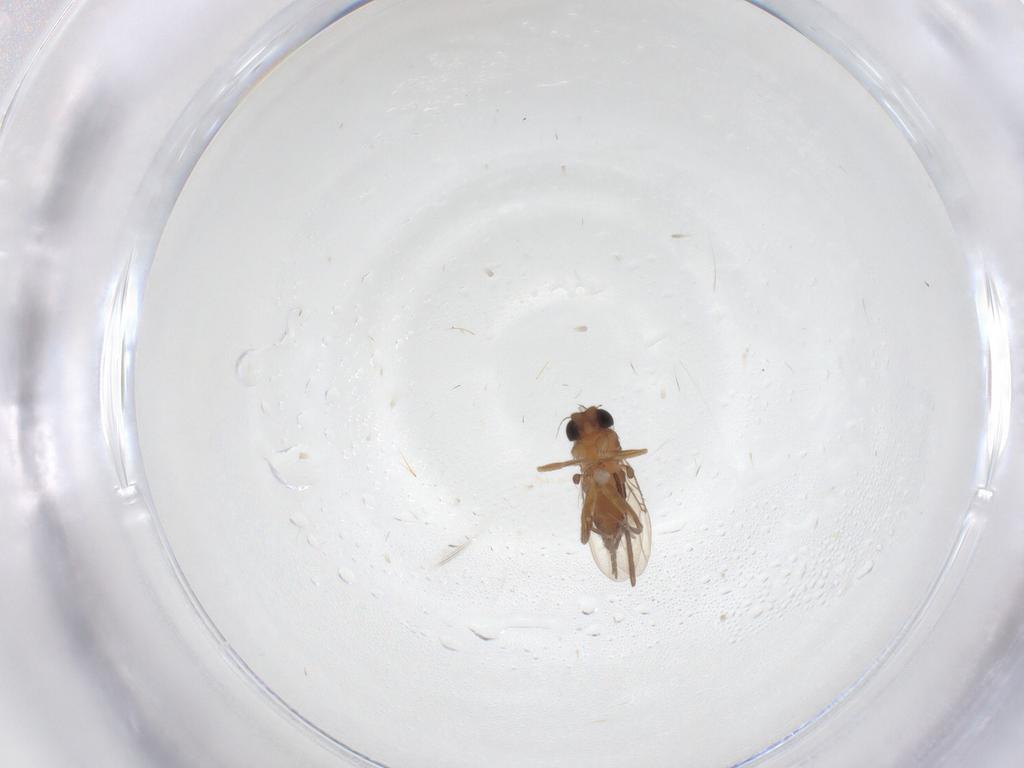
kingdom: Animalia
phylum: Arthropoda
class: Insecta
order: Diptera
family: Phoridae
